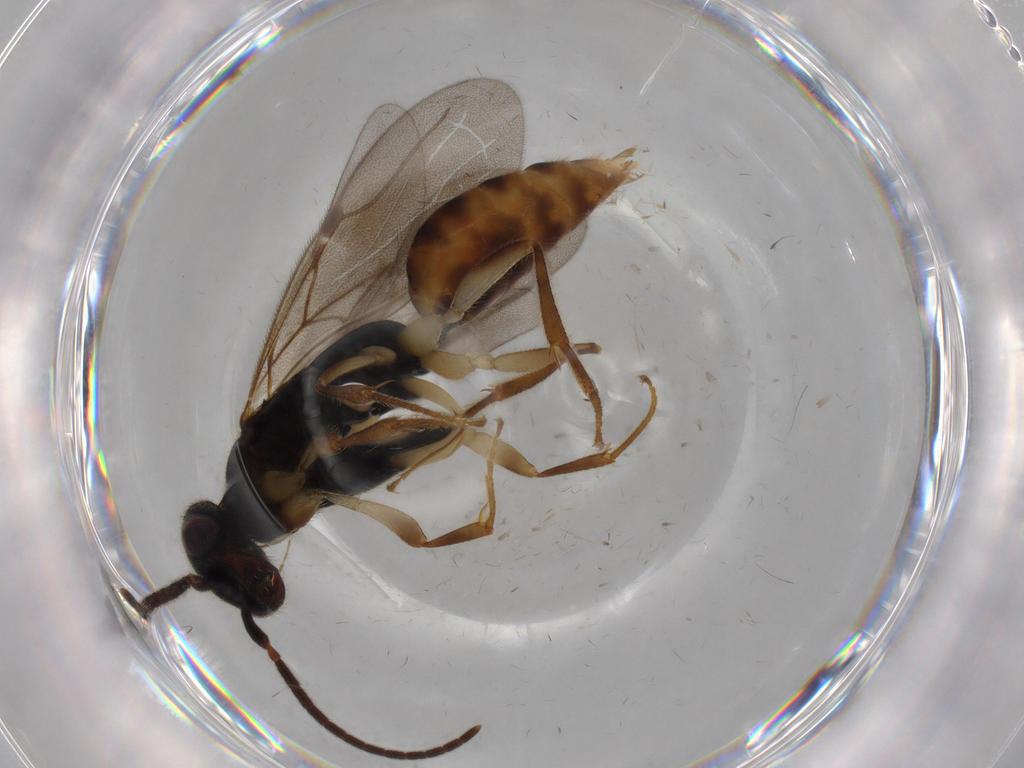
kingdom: Animalia
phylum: Arthropoda
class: Insecta
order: Hymenoptera
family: Bethylidae
